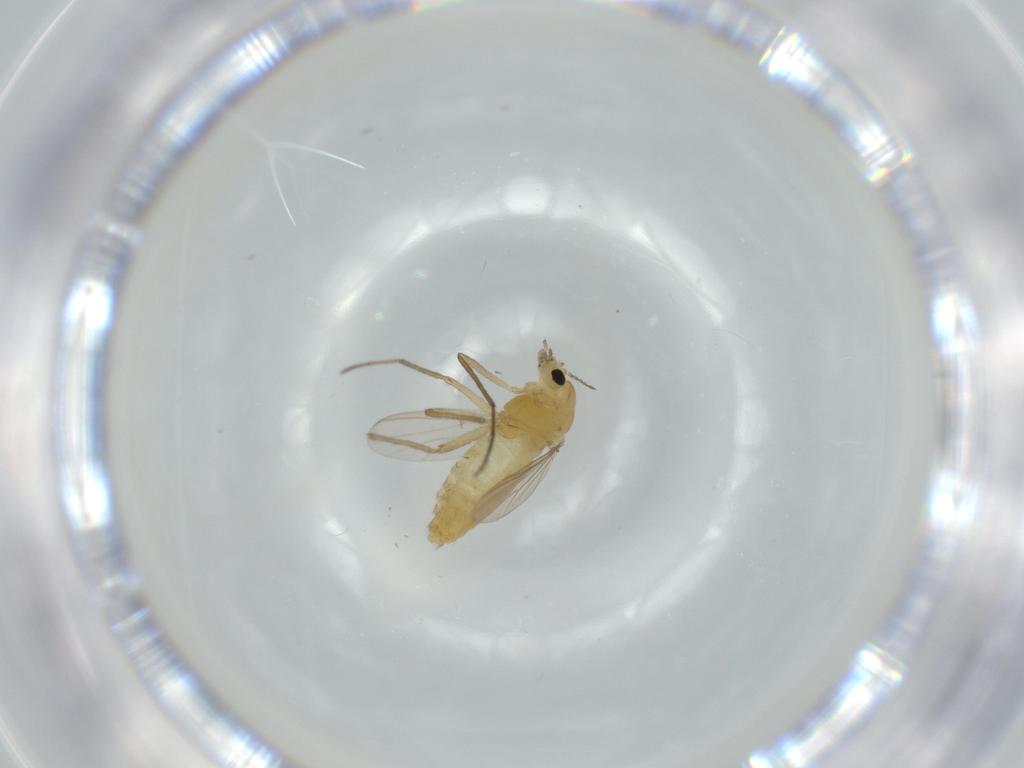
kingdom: Animalia
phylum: Arthropoda
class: Insecta
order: Diptera
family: Chironomidae
